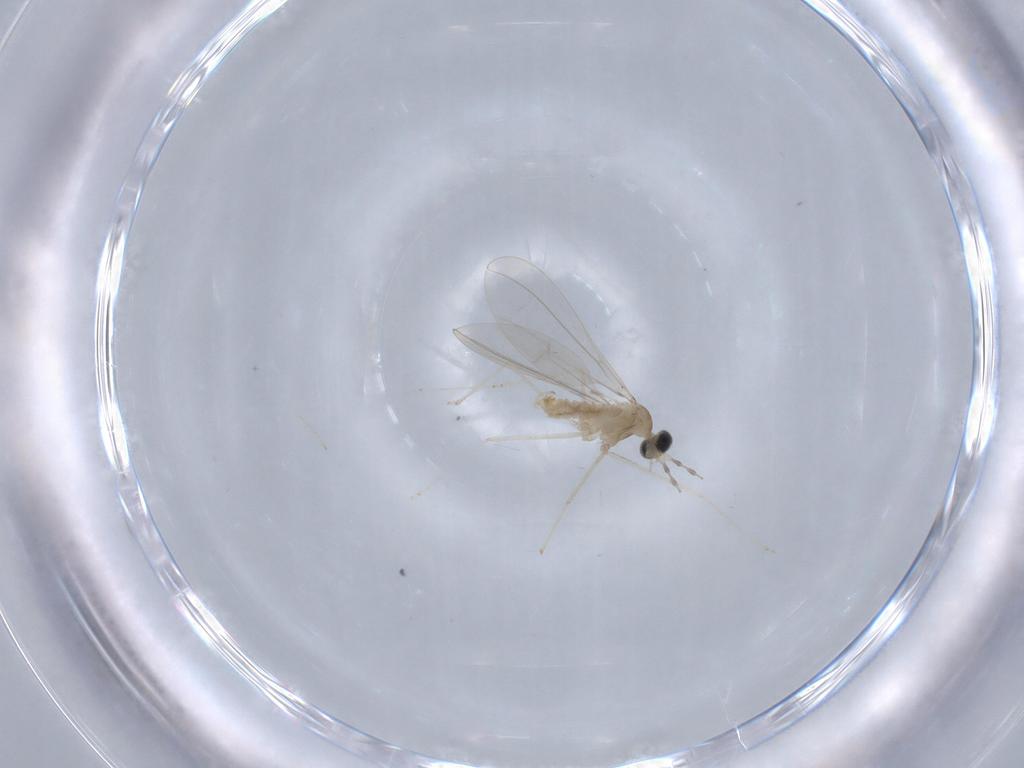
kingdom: Animalia
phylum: Arthropoda
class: Insecta
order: Diptera
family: Cecidomyiidae
